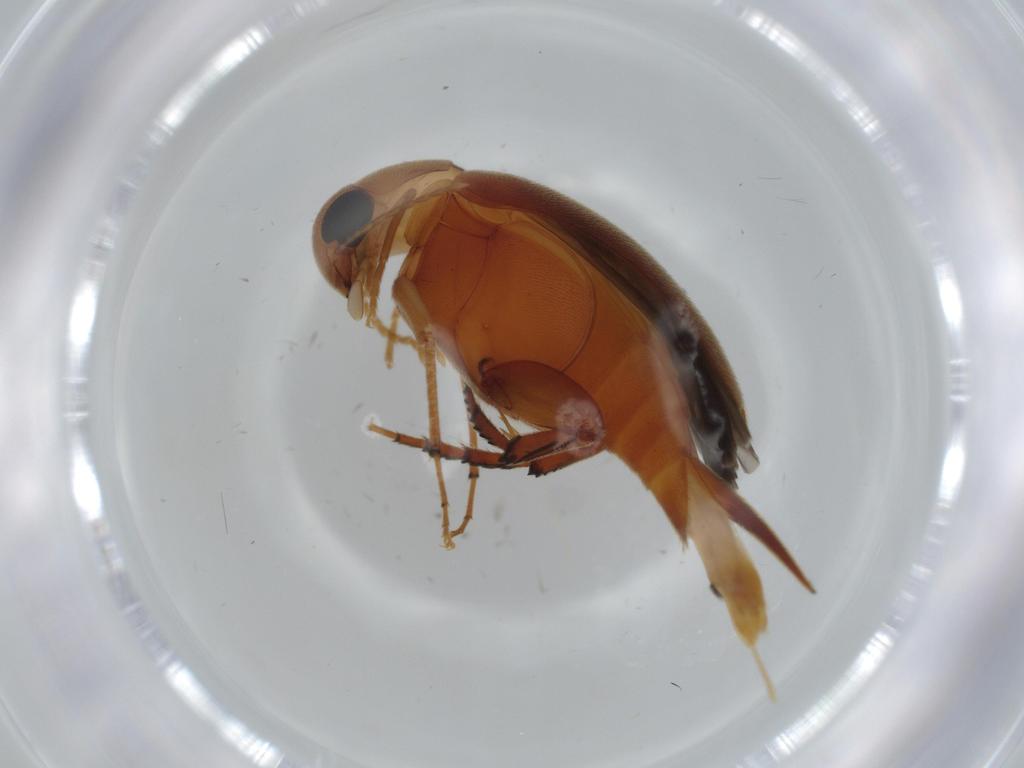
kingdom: Animalia
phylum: Arthropoda
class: Insecta
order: Coleoptera
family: Mordellidae
